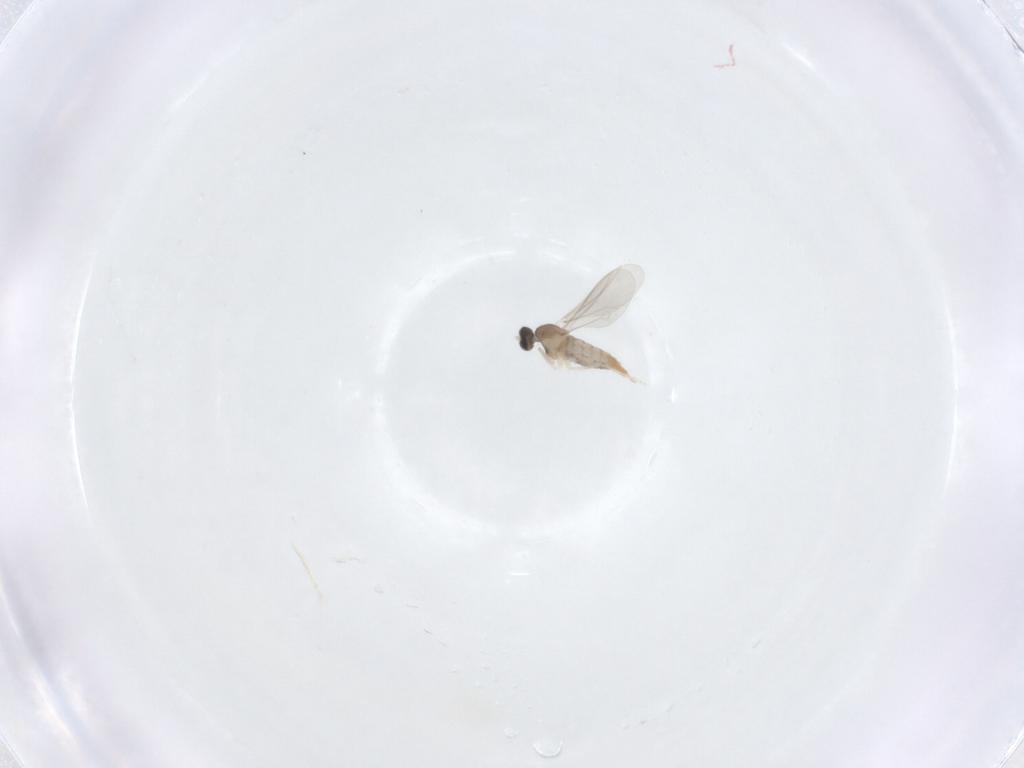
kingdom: Animalia
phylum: Arthropoda
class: Insecta
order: Diptera
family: Cecidomyiidae
